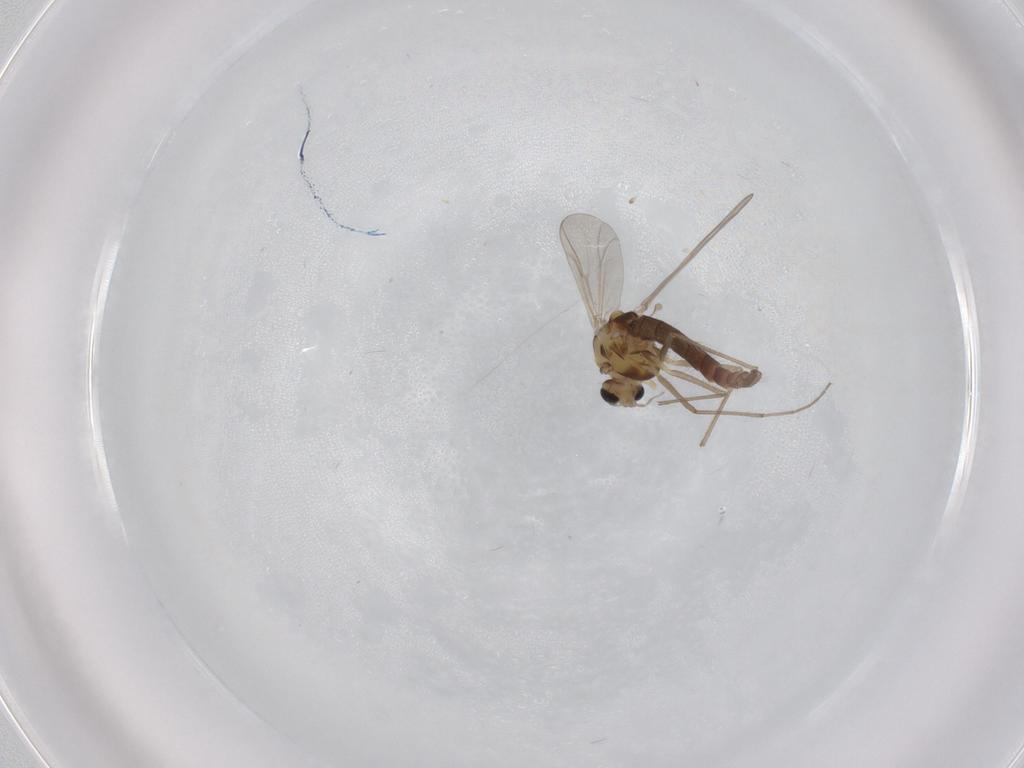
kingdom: Animalia
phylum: Arthropoda
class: Insecta
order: Diptera
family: Chironomidae
